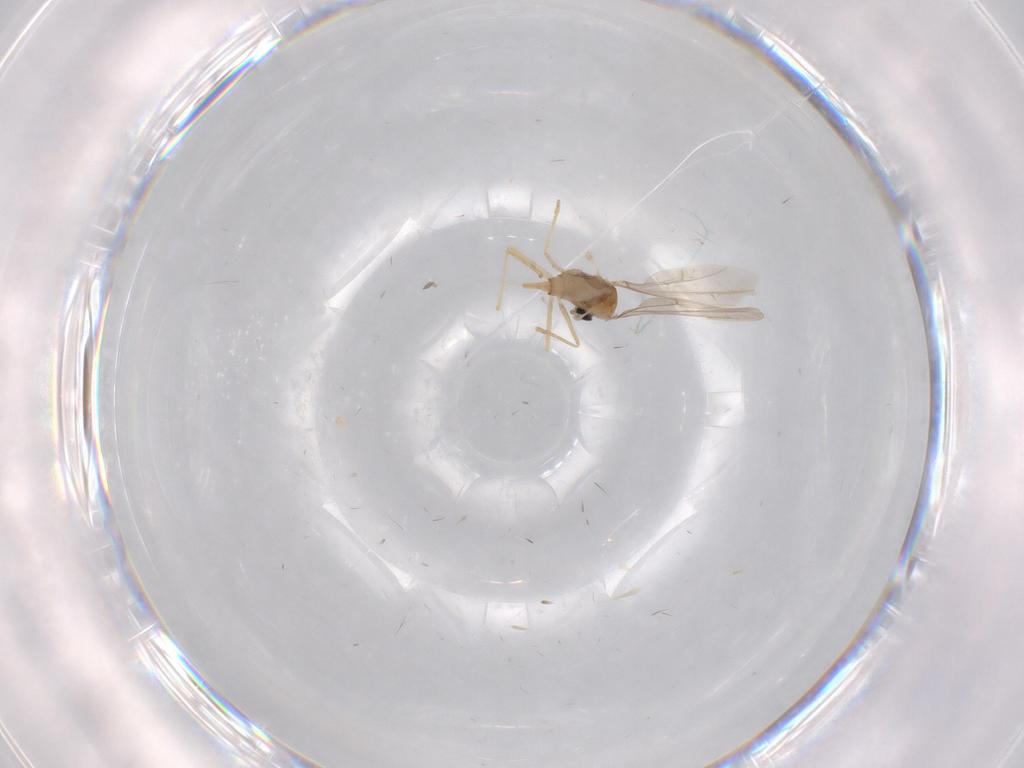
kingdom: Animalia
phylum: Arthropoda
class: Insecta
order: Diptera
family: Cecidomyiidae
